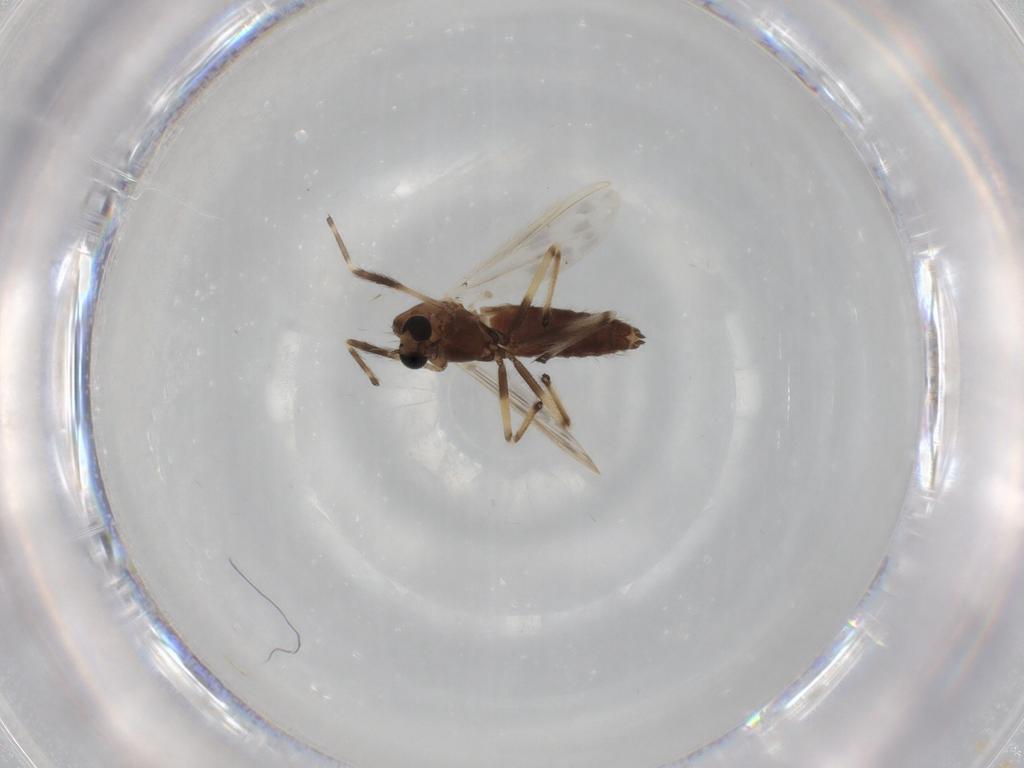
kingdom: Animalia
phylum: Arthropoda
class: Insecta
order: Diptera
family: Chironomidae
